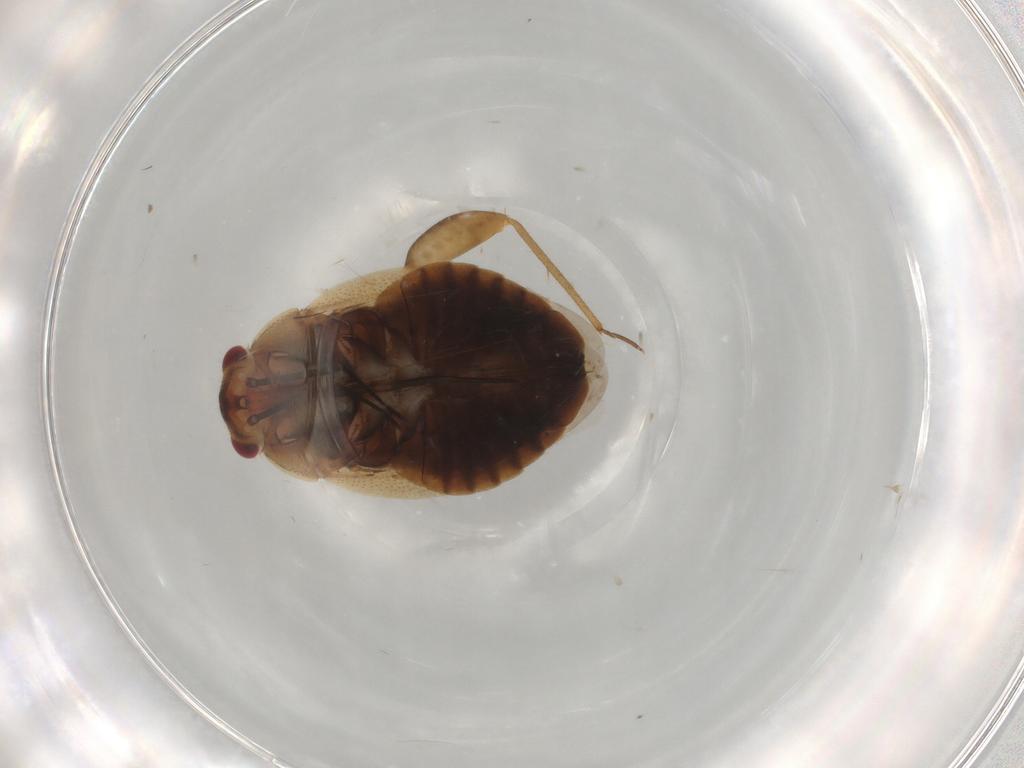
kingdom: Animalia
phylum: Arthropoda
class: Insecta
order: Hemiptera
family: Miridae
